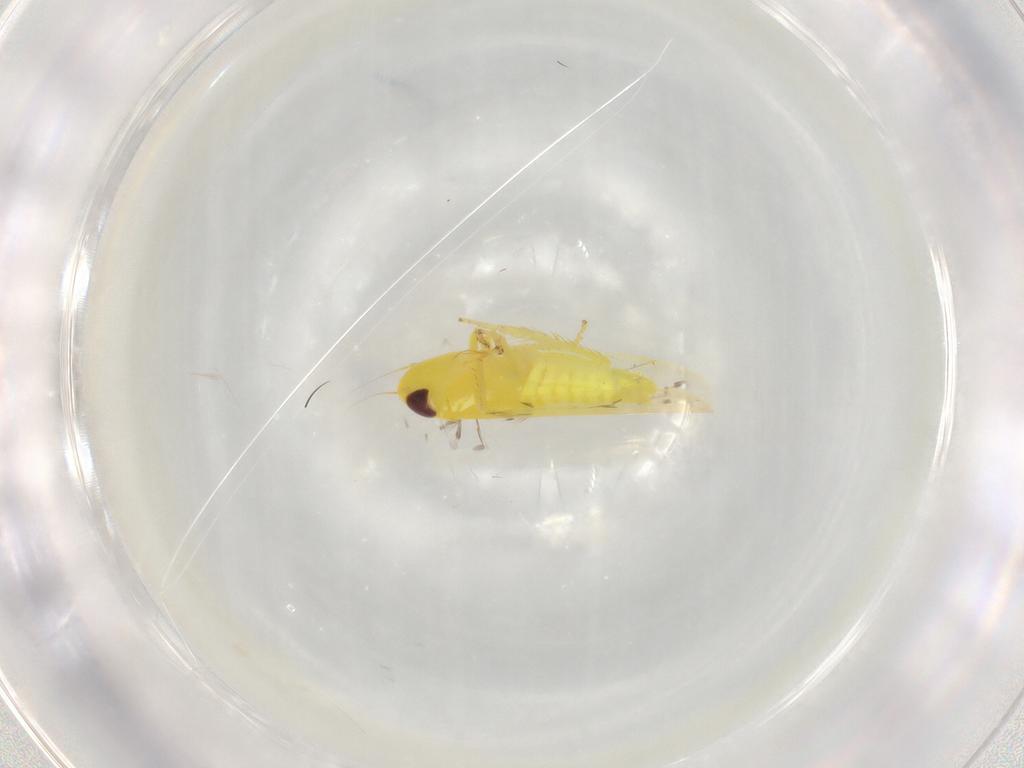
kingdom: Animalia
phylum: Arthropoda
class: Insecta
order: Hemiptera
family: Cicadellidae
